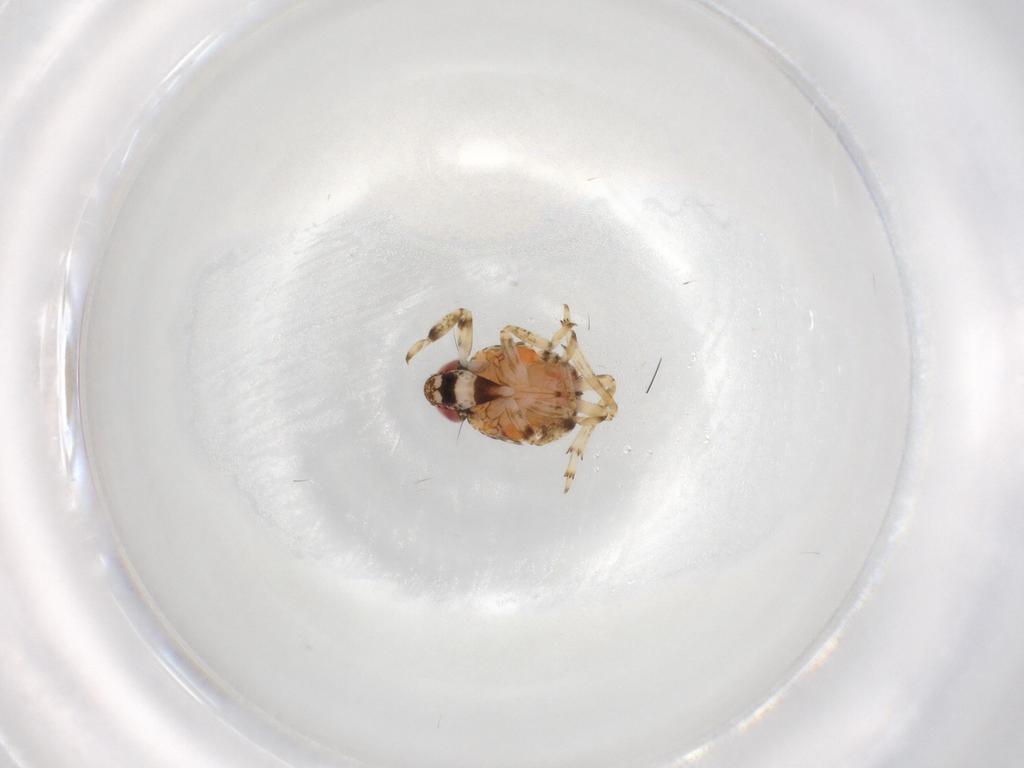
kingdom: Animalia
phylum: Arthropoda
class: Insecta
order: Hemiptera
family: Issidae
